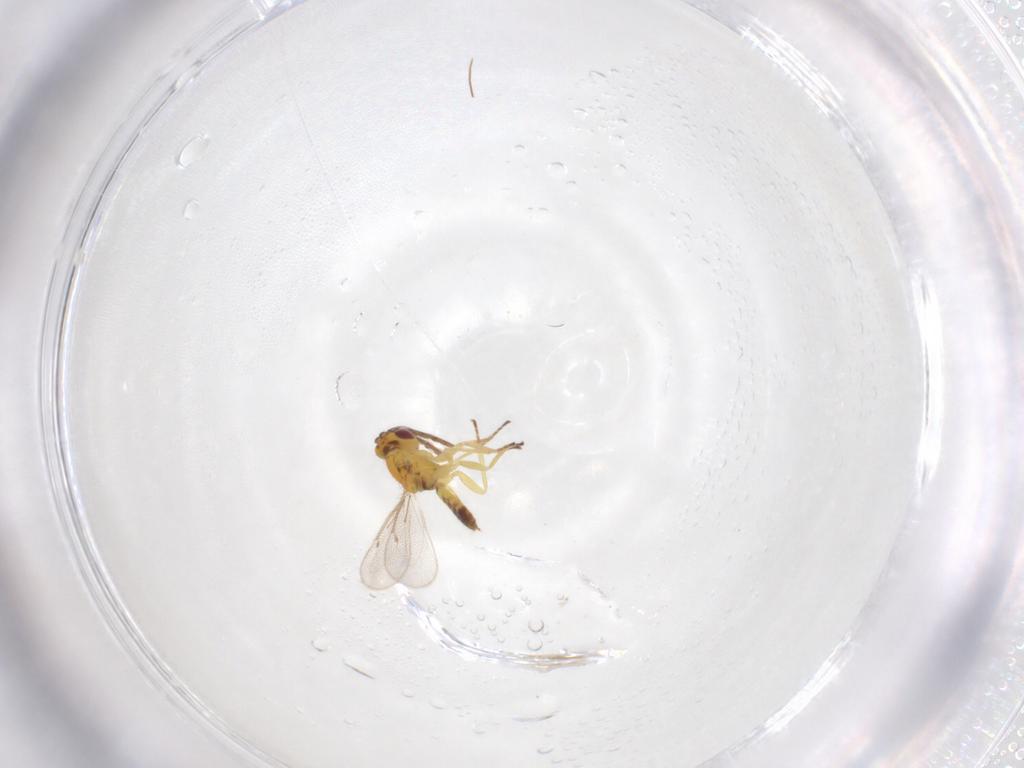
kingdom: Animalia
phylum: Arthropoda
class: Insecta
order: Hymenoptera
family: Eulophidae
